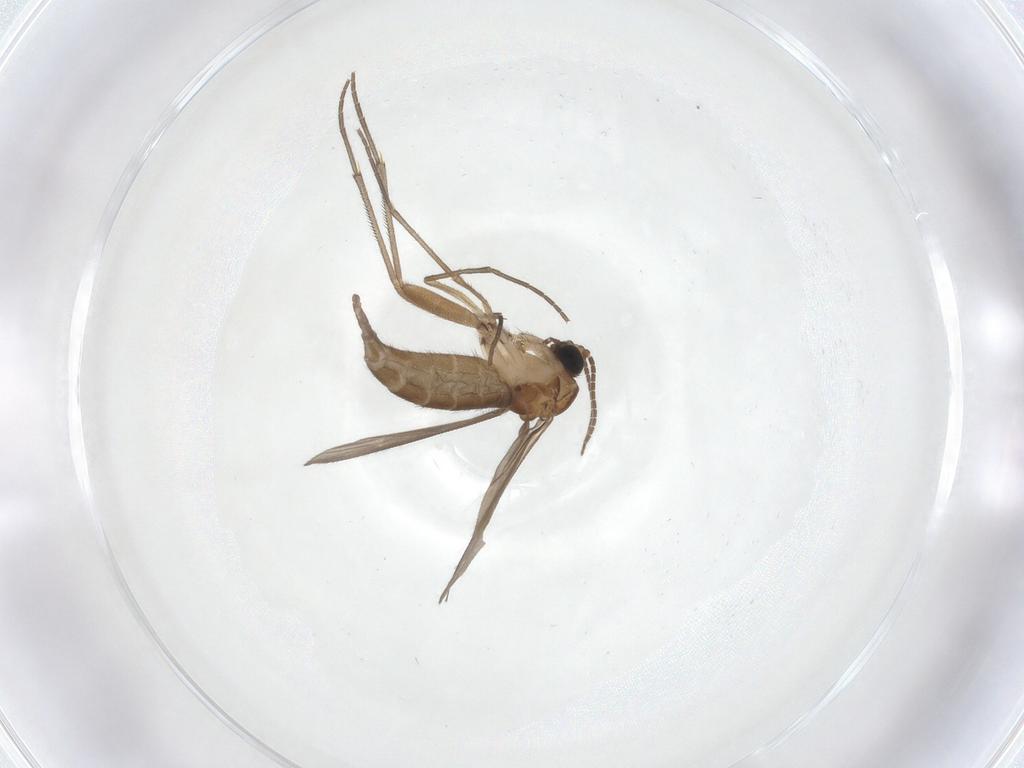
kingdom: Animalia
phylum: Arthropoda
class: Insecta
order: Diptera
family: Sciaridae
